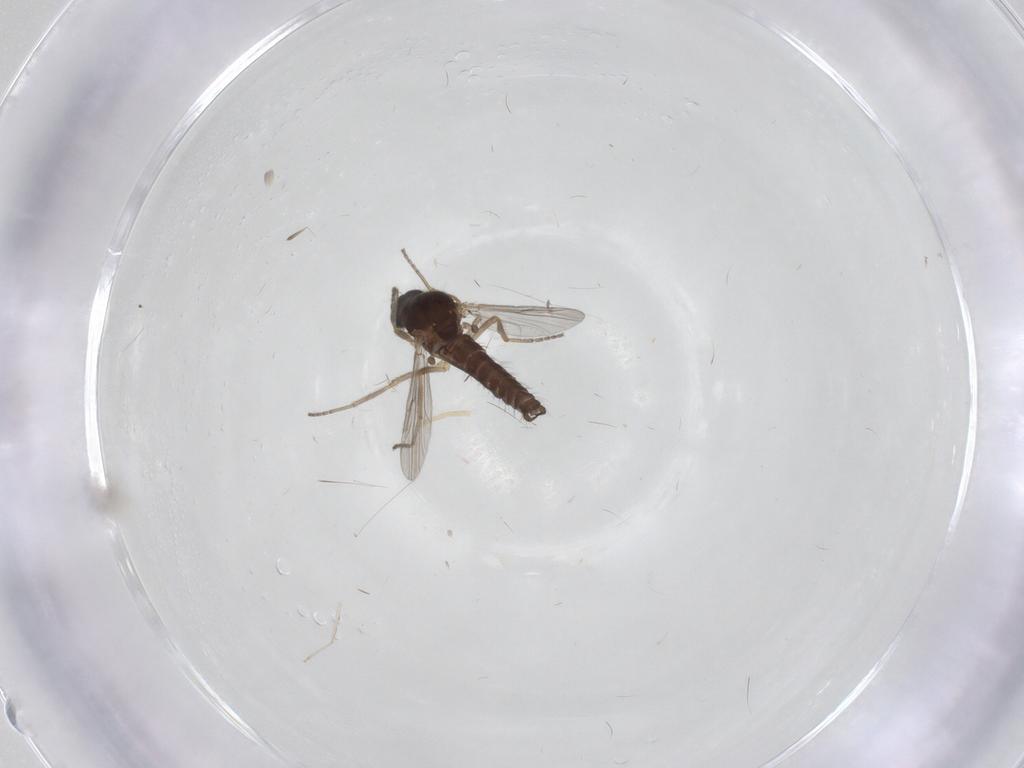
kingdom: Animalia
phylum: Arthropoda
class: Insecta
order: Diptera
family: Ceratopogonidae
